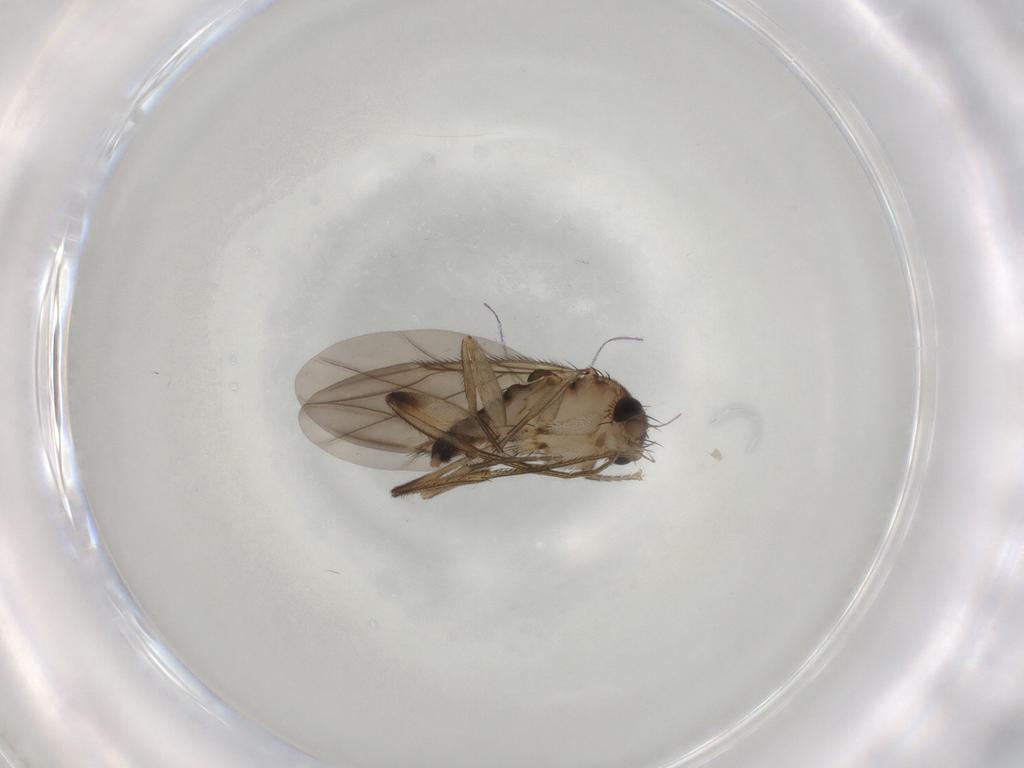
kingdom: Animalia
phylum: Arthropoda
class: Insecta
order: Diptera
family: Phoridae
